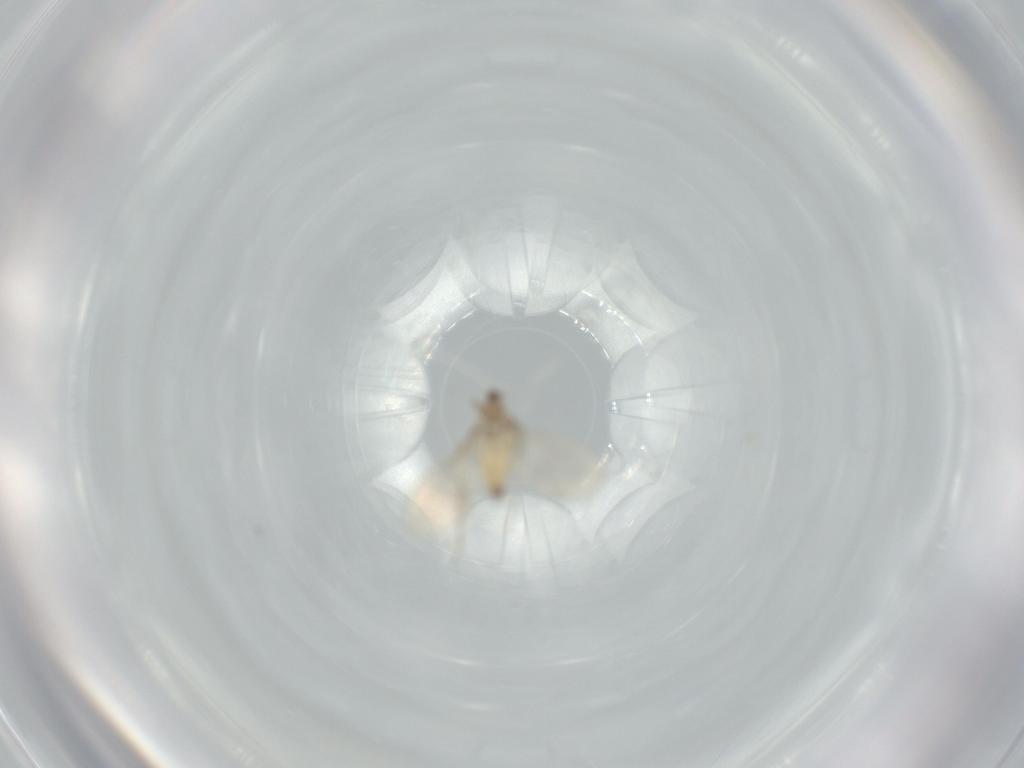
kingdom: Animalia
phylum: Arthropoda
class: Insecta
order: Diptera
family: Cecidomyiidae
